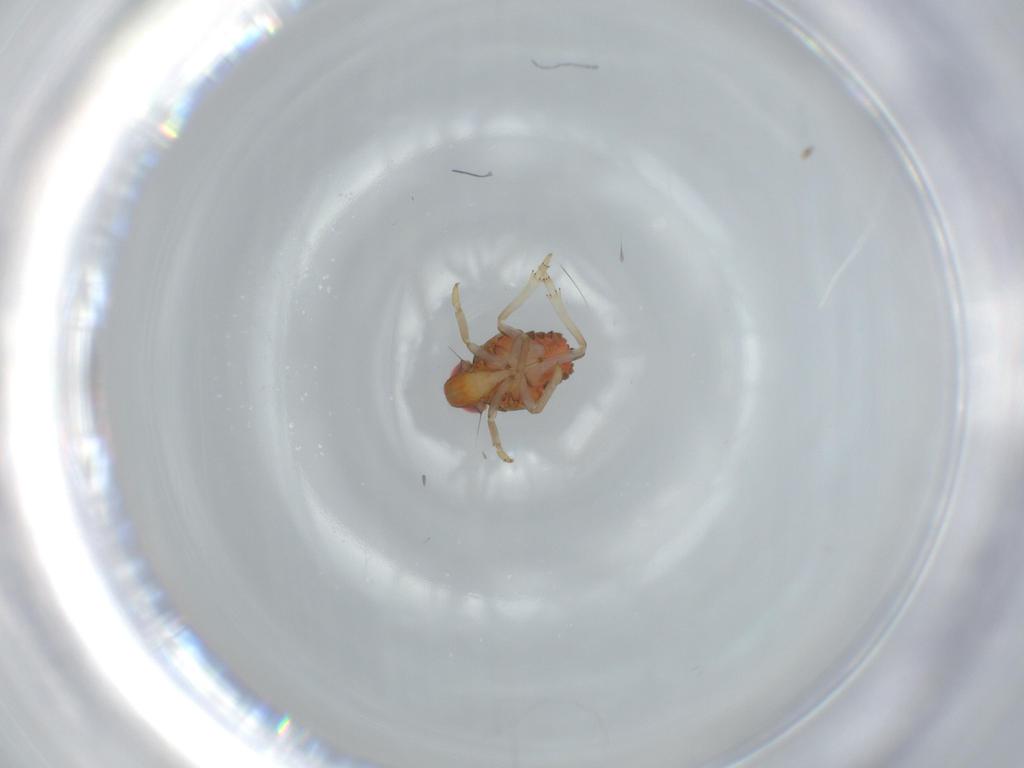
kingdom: Animalia
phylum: Arthropoda
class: Insecta
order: Hemiptera
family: Issidae
